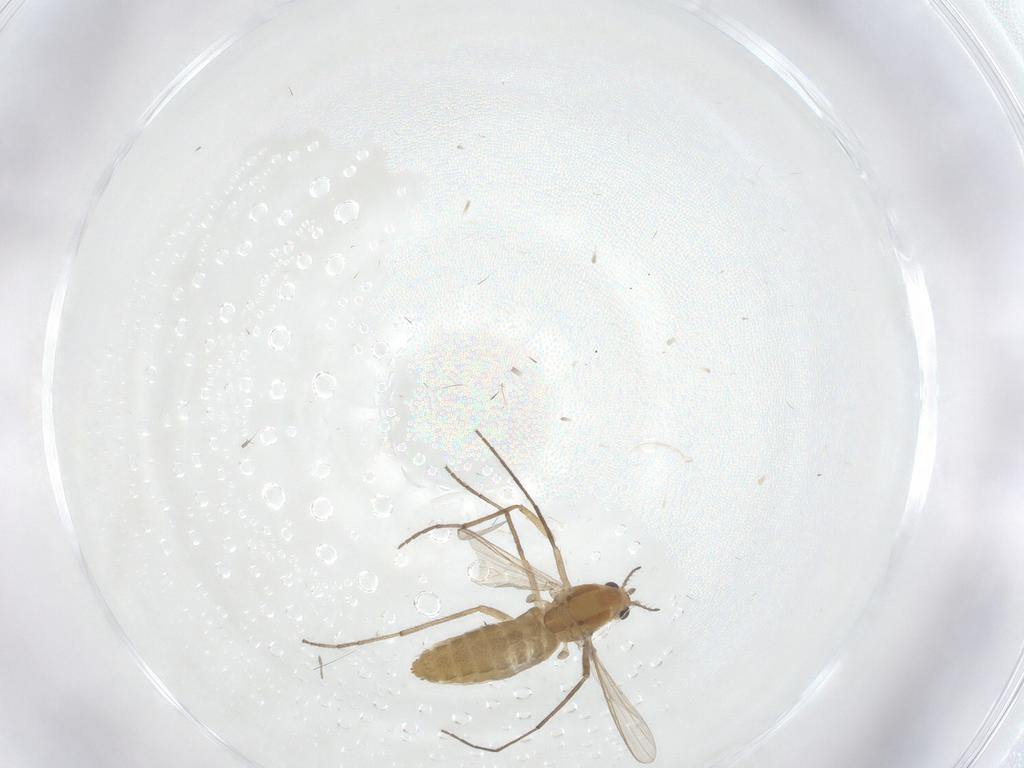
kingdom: Animalia
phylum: Arthropoda
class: Insecta
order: Diptera
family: Chironomidae
